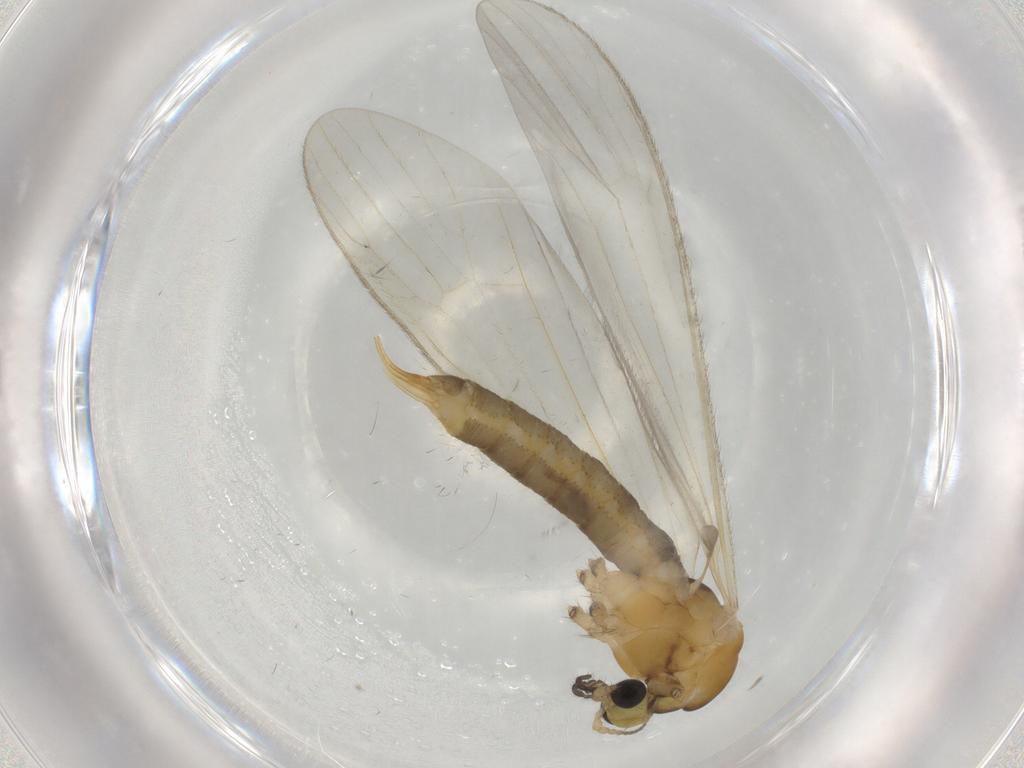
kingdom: Animalia
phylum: Arthropoda
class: Insecta
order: Diptera
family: Limoniidae
